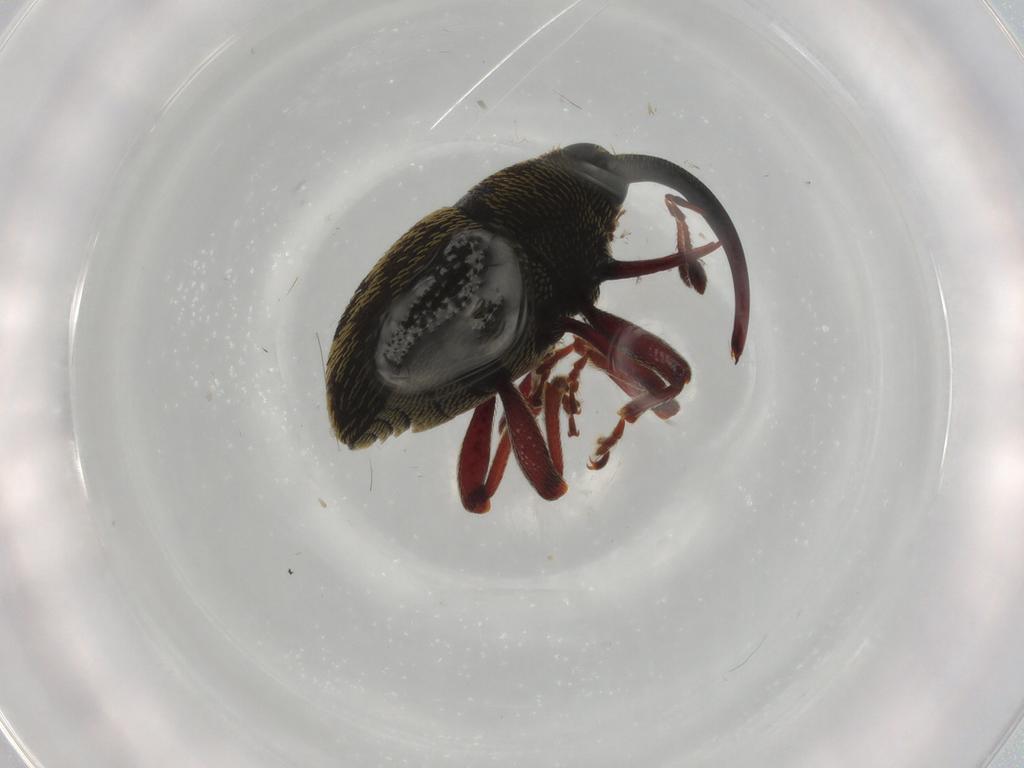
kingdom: Animalia
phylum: Arthropoda
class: Insecta
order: Coleoptera
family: Curculionidae
